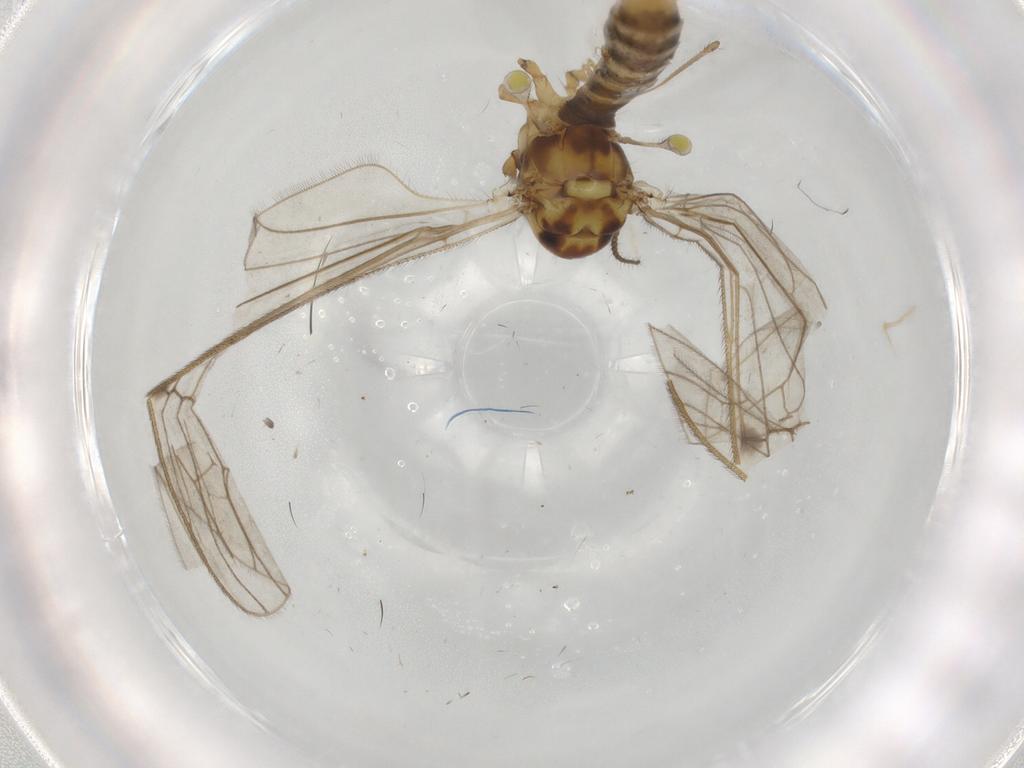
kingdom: Animalia
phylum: Arthropoda
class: Insecta
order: Diptera
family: Limoniidae
